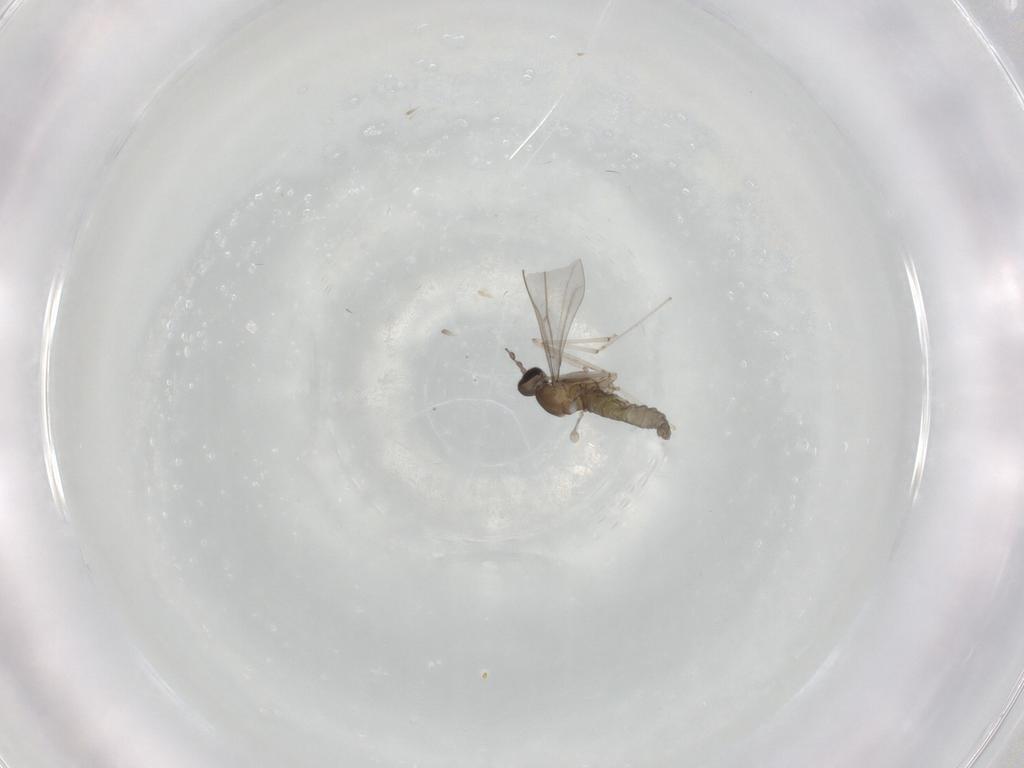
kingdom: Animalia
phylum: Arthropoda
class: Insecta
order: Diptera
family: Cecidomyiidae
